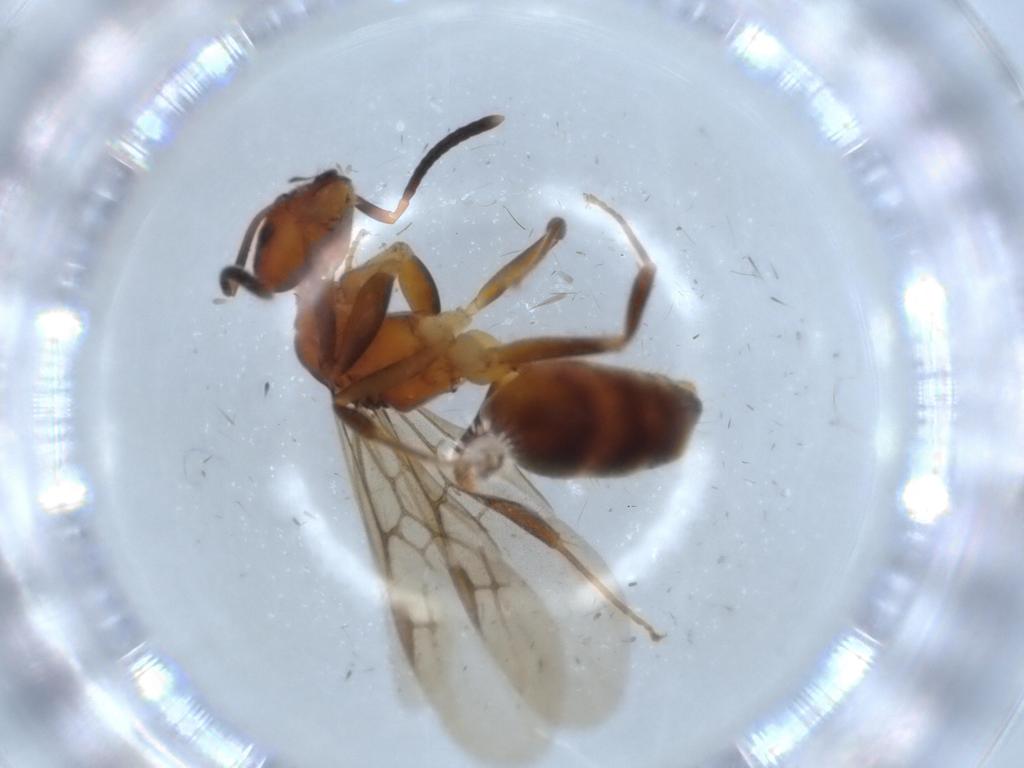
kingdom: Animalia
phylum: Arthropoda
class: Insecta
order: Hymenoptera
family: Formicidae
